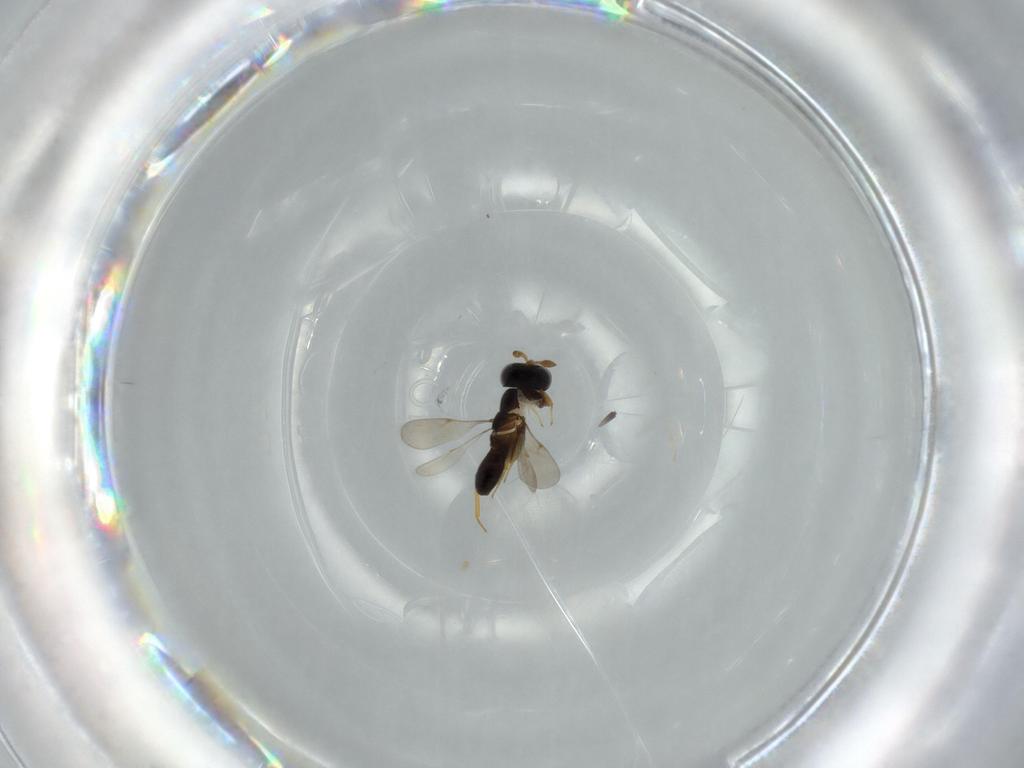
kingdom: Animalia
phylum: Arthropoda
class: Insecta
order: Hymenoptera
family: Scelionidae
